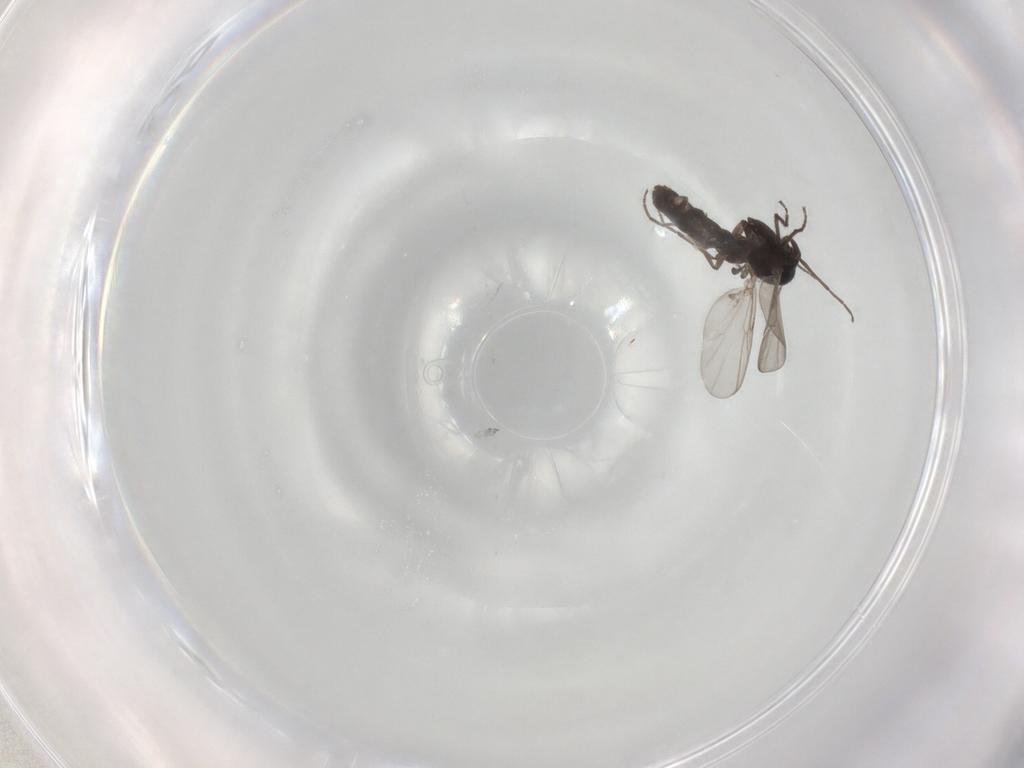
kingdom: Animalia
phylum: Arthropoda
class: Insecta
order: Diptera
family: Chironomidae
